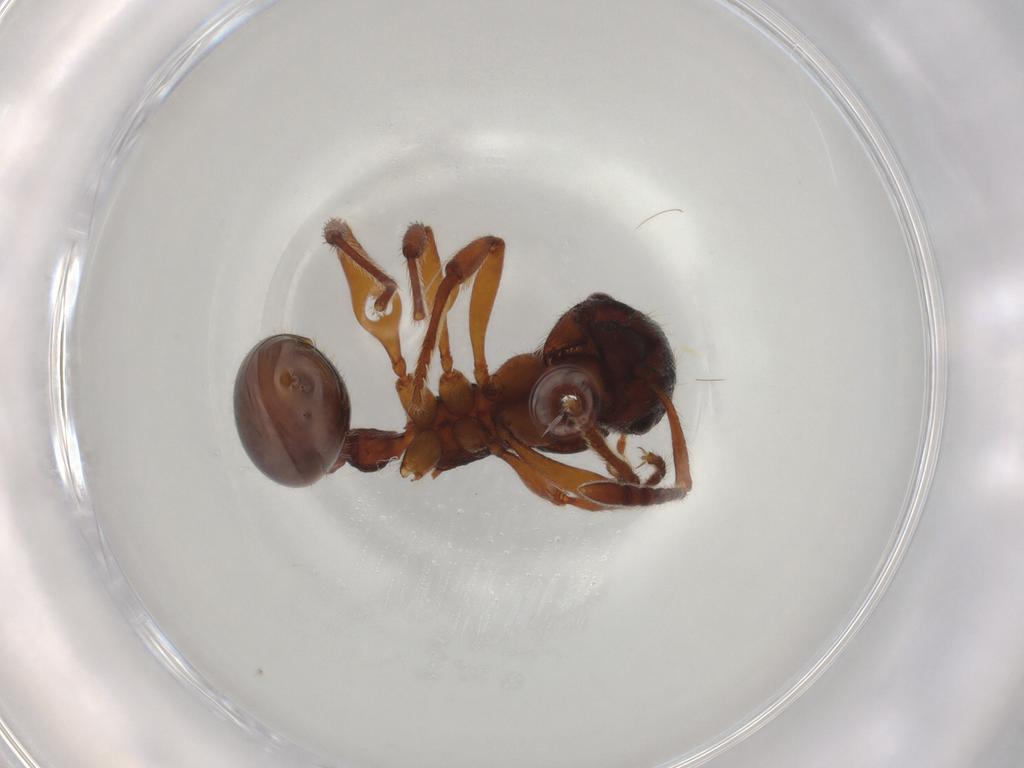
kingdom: Animalia
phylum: Arthropoda
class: Insecta
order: Hymenoptera
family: Formicidae
